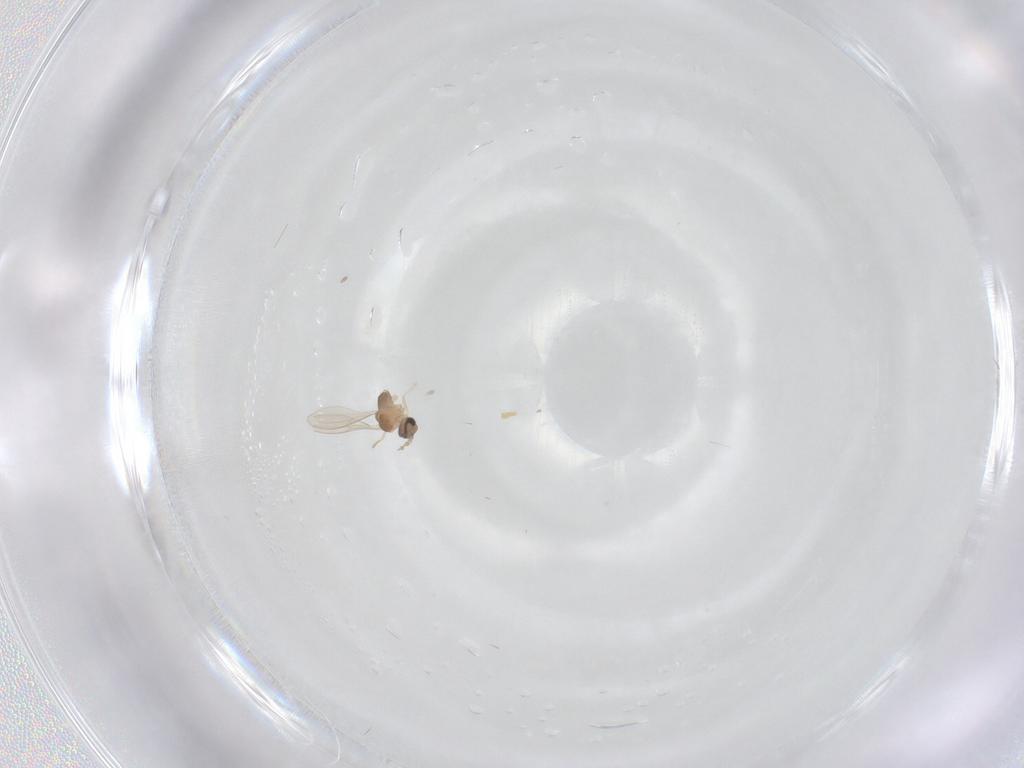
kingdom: Animalia
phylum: Arthropoda
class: Insecta
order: Diptera
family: Cecidomyiidae
